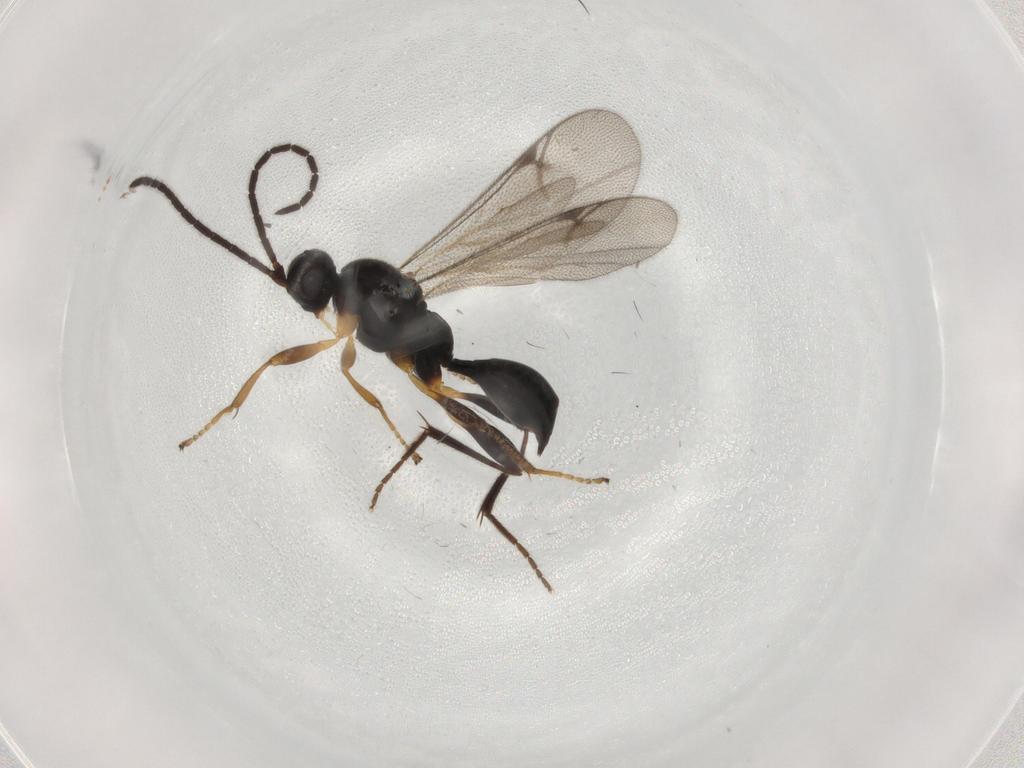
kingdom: Animalia
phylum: Arthropoda
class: Insecta
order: Hymenoptera
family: Proctotrupidae
